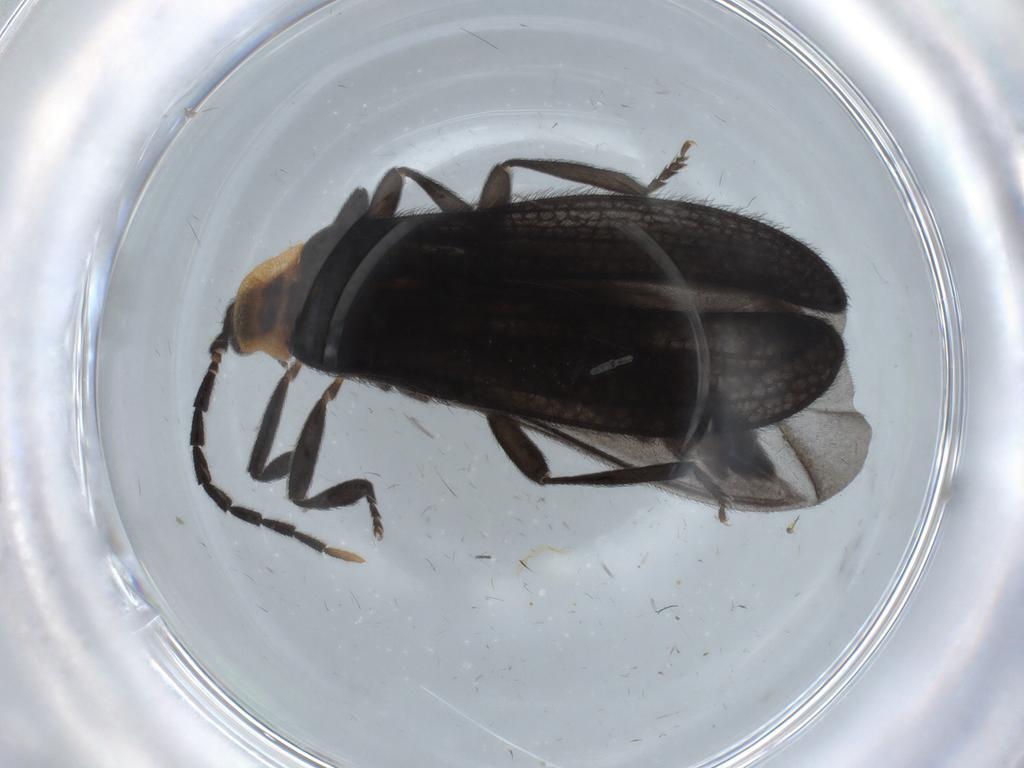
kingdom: Animalia
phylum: Arthropoda
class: Insecta
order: Coleoptera
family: Lycidae
